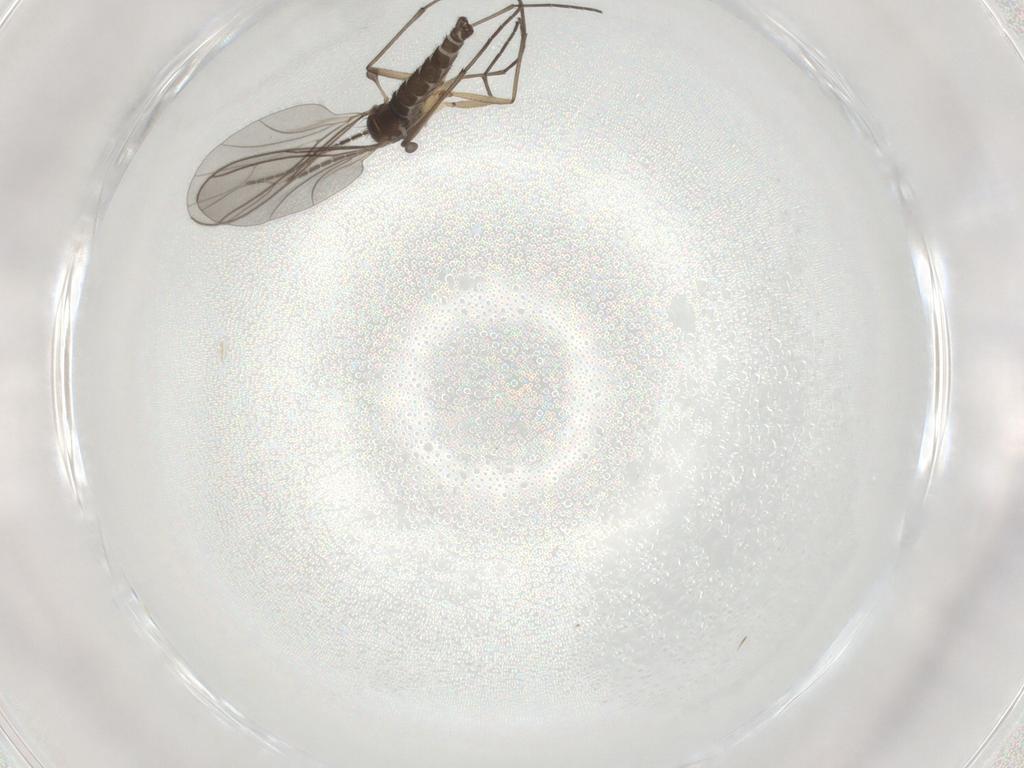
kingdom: Animalia
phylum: Arthropoda
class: Insecta
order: Diptera
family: Sciaridae
